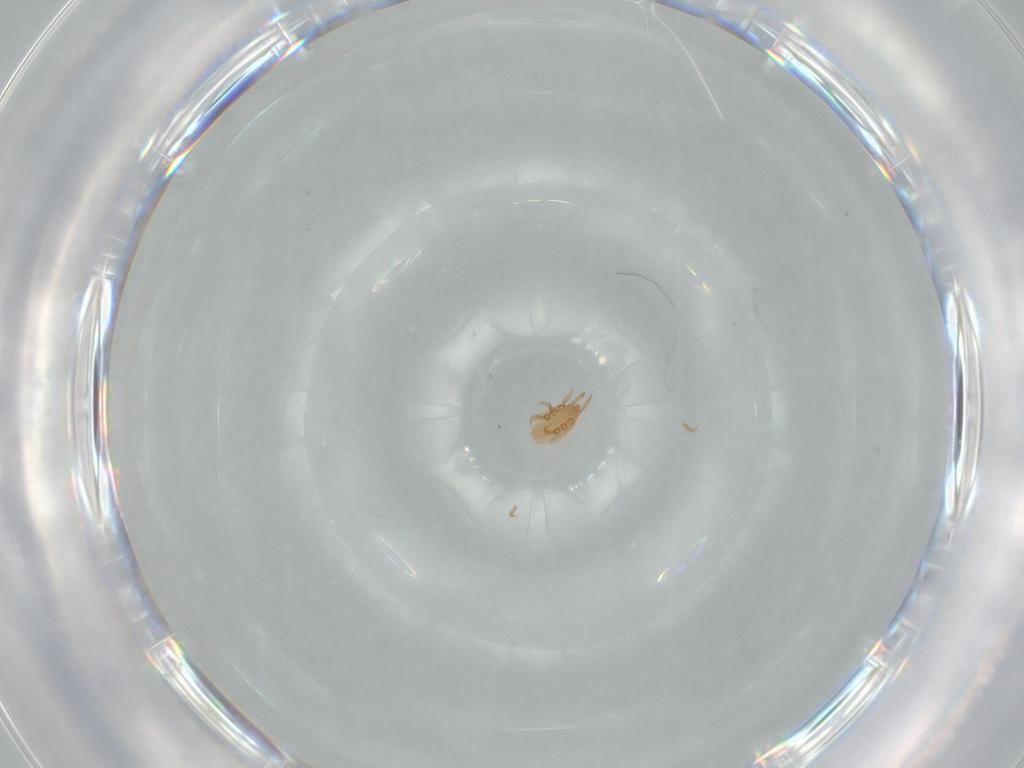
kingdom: Animalia
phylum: Arthropoda
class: Arachnida
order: Mesostigmata
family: Dinychidae
